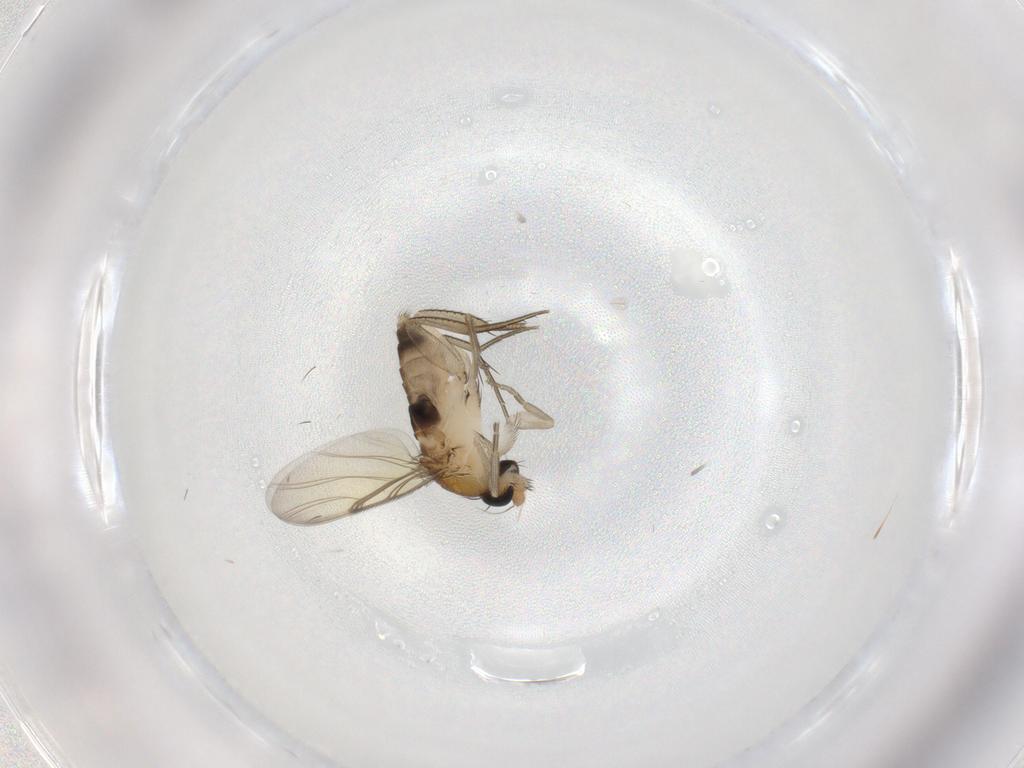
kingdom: Animalia
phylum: Arthropoda
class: Insecta
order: Diptera
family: Phoridae
